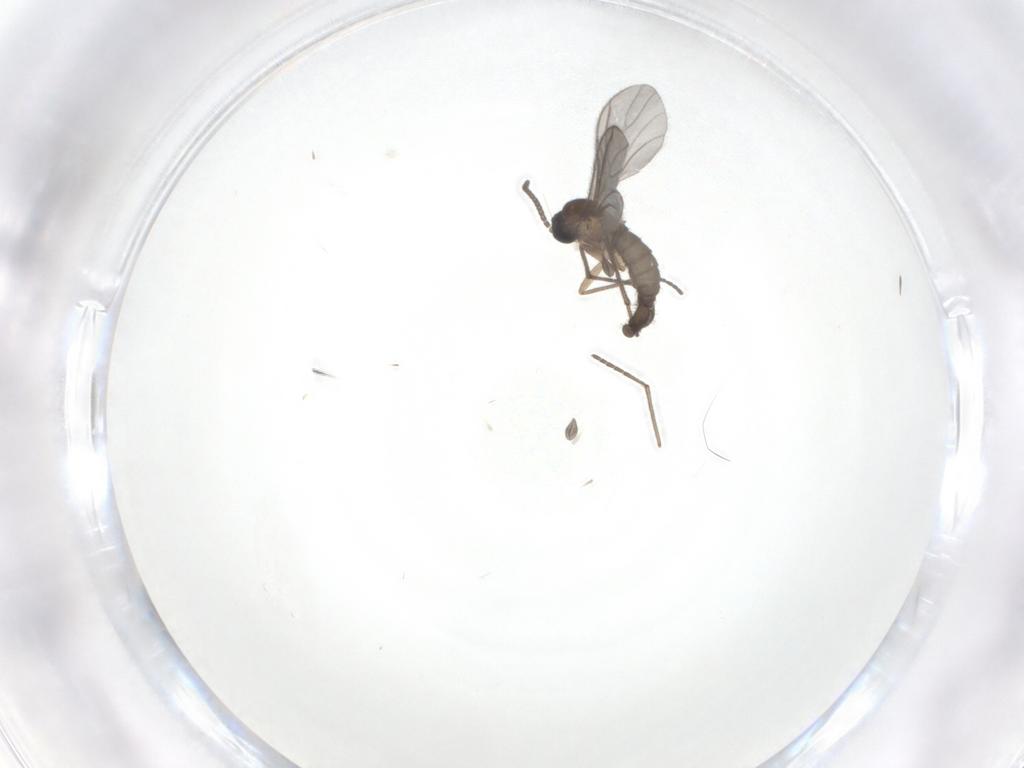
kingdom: Animalia
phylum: Arthropoda
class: Insecta
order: Diptera
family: Sciaridae
